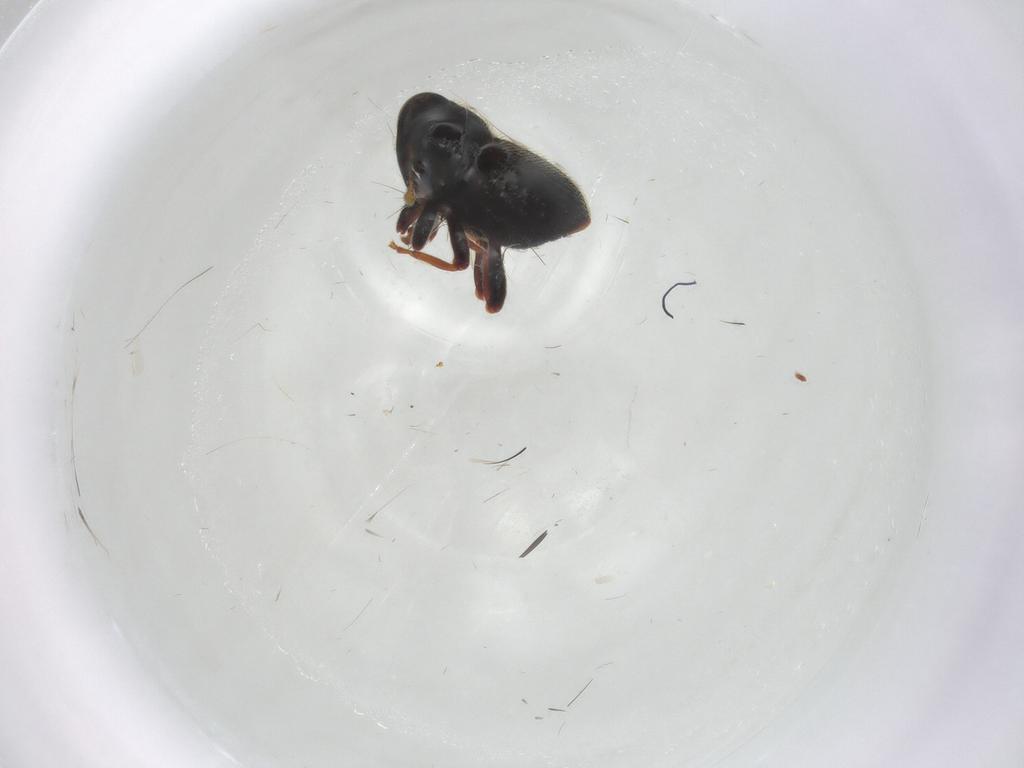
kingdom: Animalia
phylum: Arthropoda
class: Insecta
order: Coleoptera
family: Curculionidae
